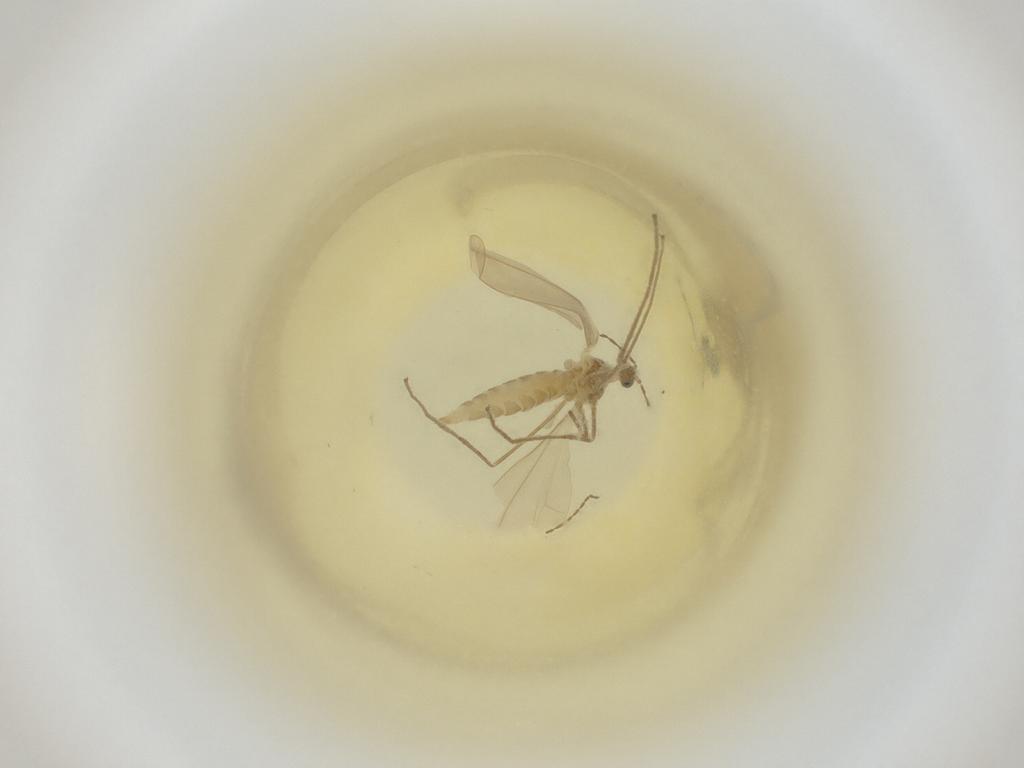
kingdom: Animalia
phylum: Arthropoda
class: Insecta
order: Diptera
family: Cecidomyiidae
